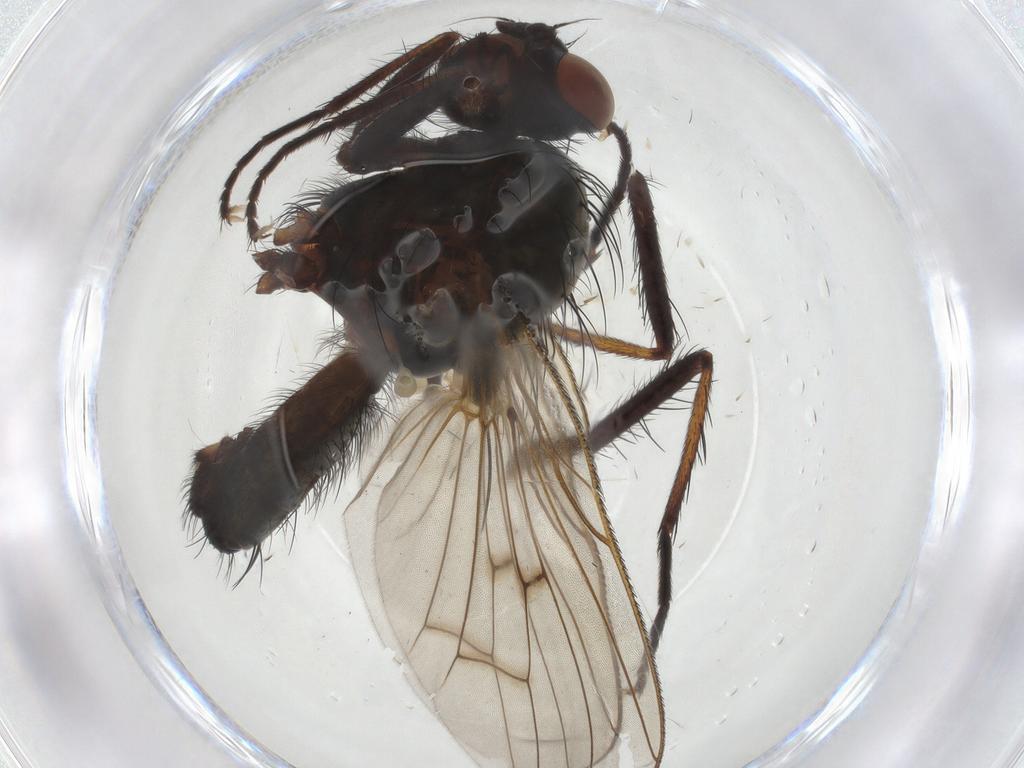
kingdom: Animalia
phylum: Arthropoda
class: Insecta
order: Diptera
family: Anthomyiidae
